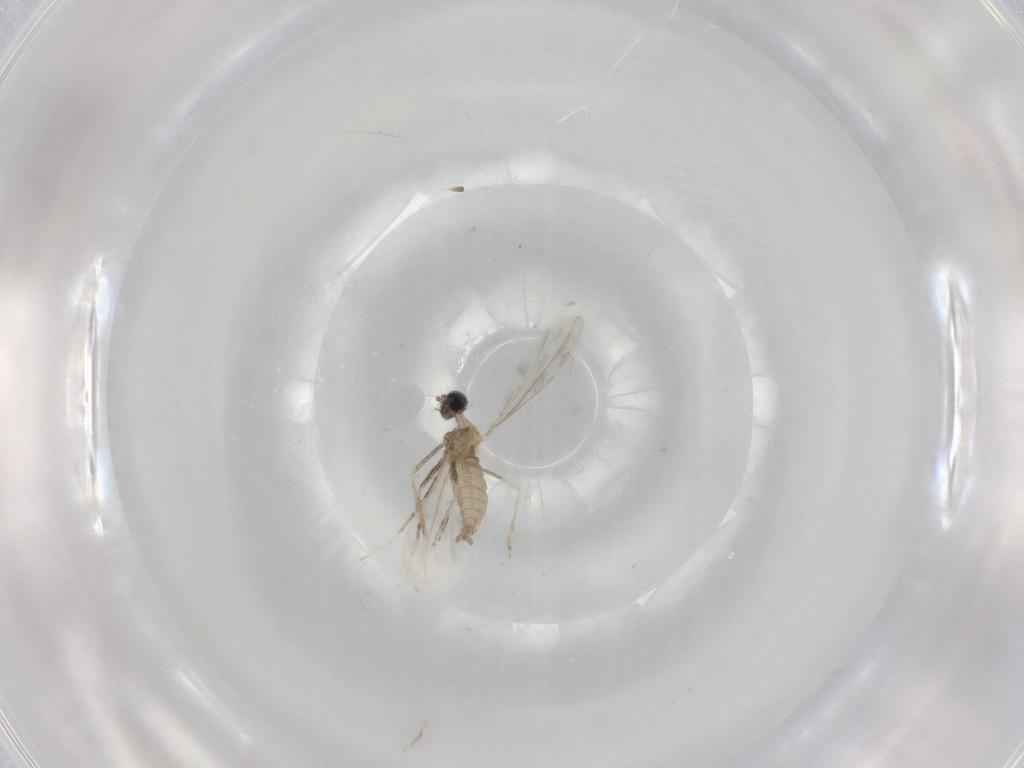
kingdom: Animalia
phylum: Arthropoda
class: Insecta
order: Diptera
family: Cecidomyiidae
